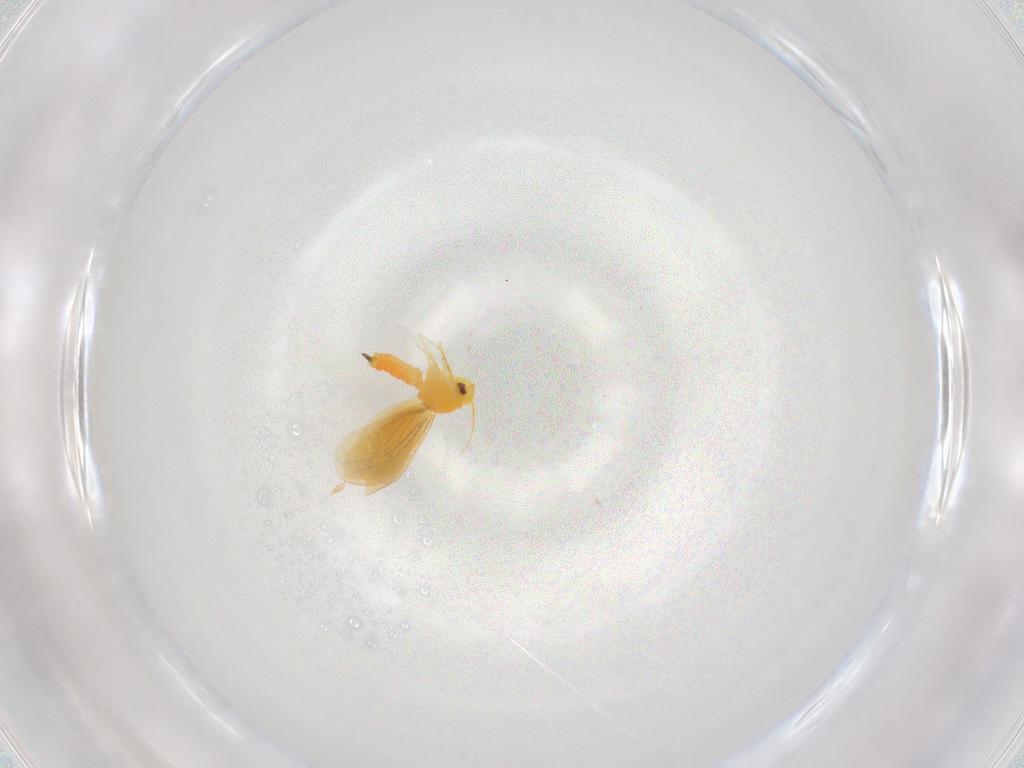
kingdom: Animalia
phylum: Arthropoda
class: Insecta
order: Hemiptera
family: Aleyrodidae
